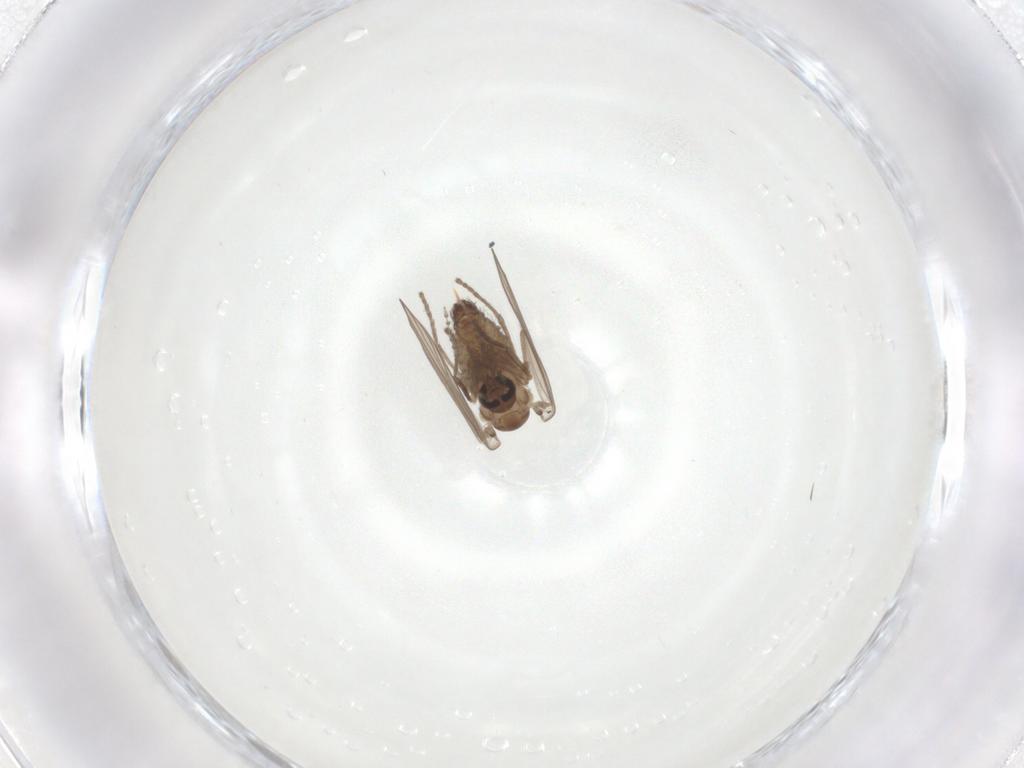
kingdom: Animalia
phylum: Arthropoda
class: Insecta
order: Diptera
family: Psychodidae
